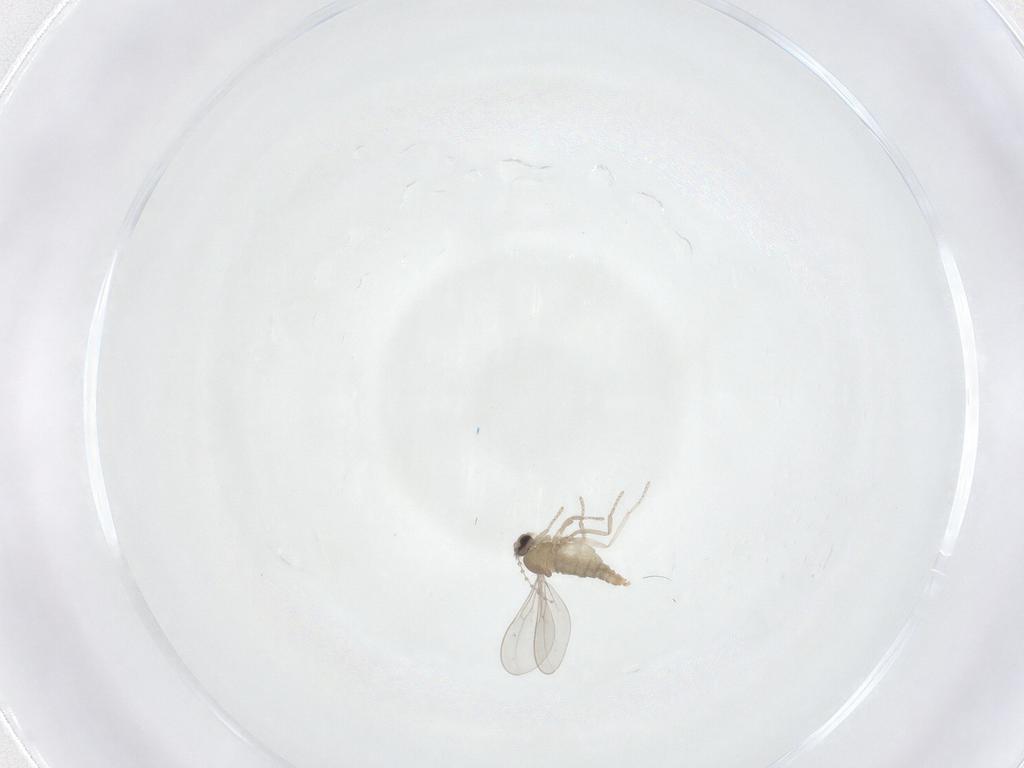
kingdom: Animalia
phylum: Arthropoda
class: Insecta
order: Diptera
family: Cecidomyiidae
